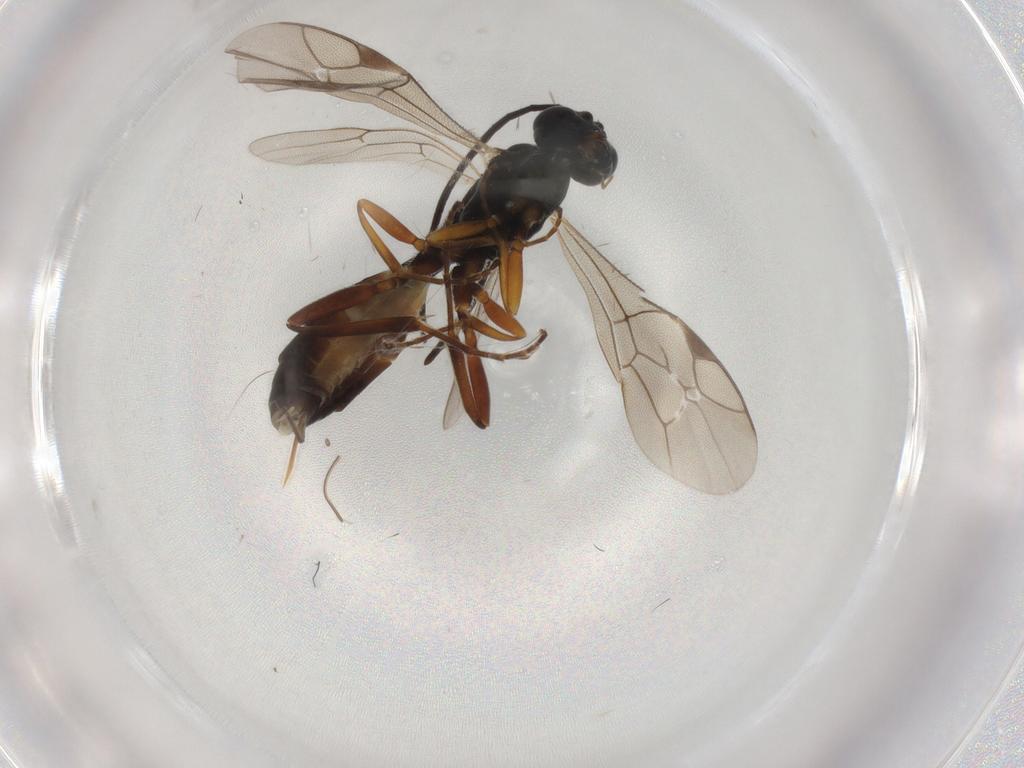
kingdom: Animalia
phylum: Arthropoda
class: Insecta
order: Hymenoptera
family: Ichneumonidae
